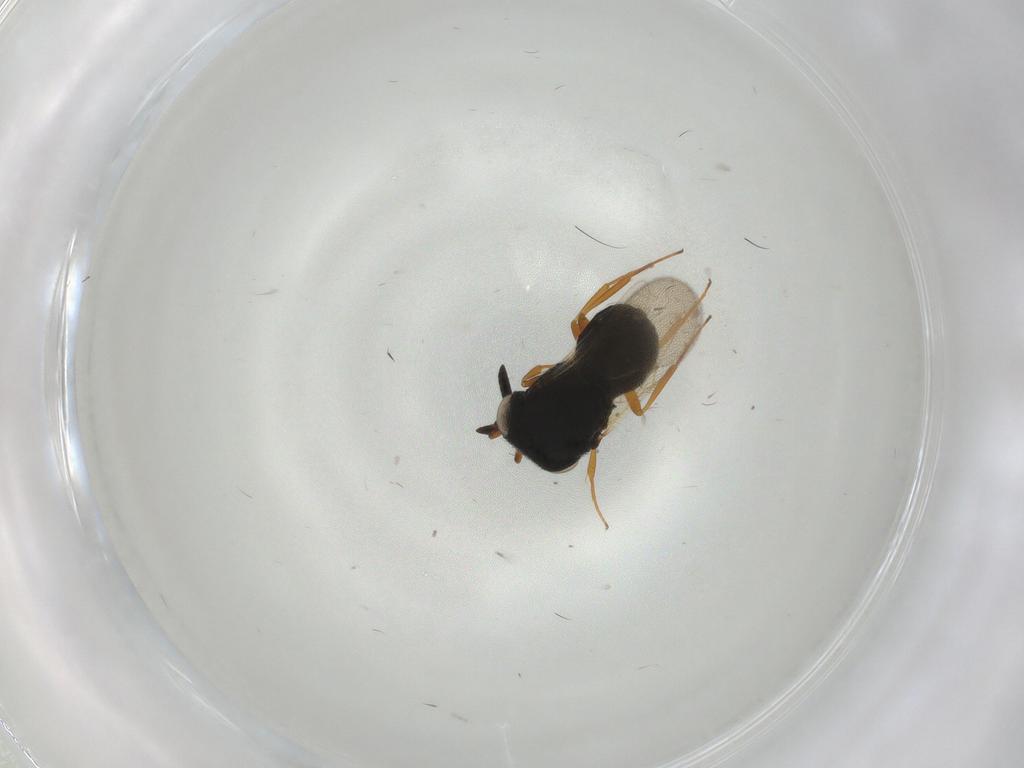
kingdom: Animalia
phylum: Arthropoda
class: Insecta
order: Hymenoptera
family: Scelionidae
